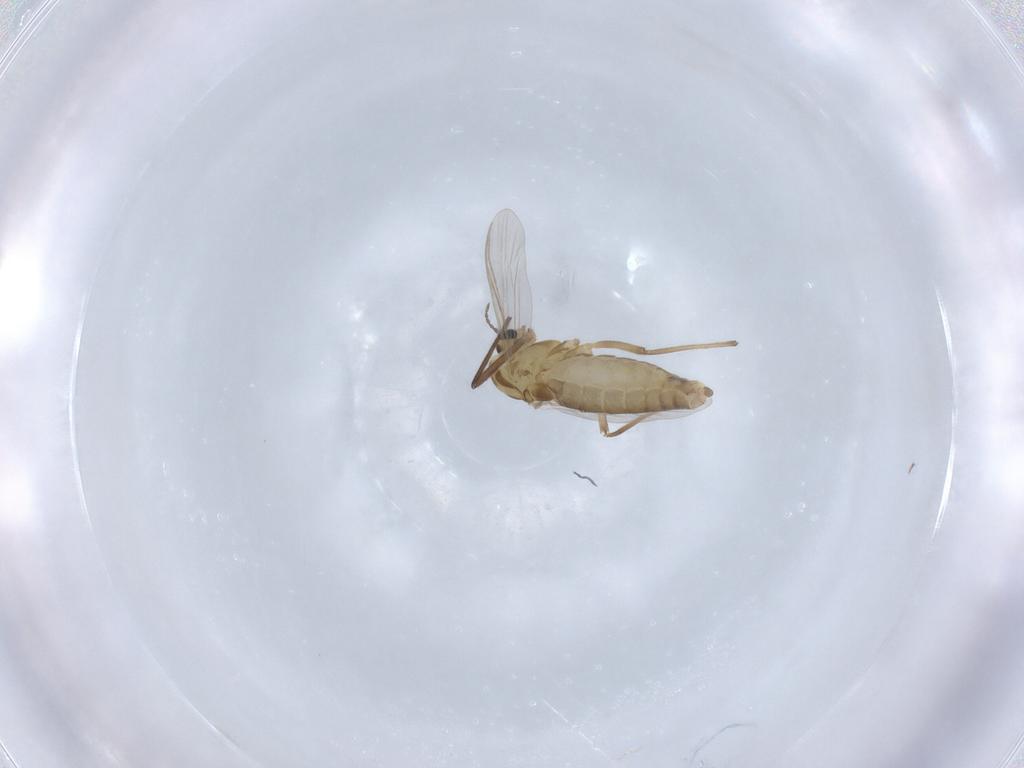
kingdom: Animalia
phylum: Arthropoda
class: Insecta
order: Diptera
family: Chironomidae
